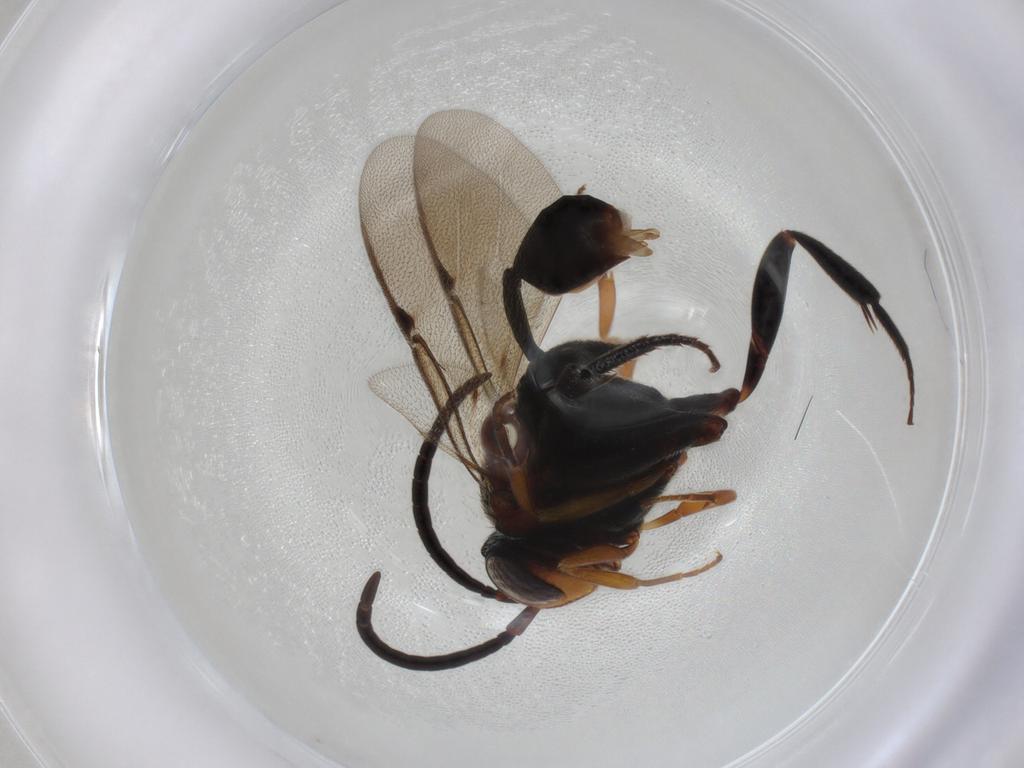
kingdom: Animalia
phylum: Arthropoda
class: Insecta
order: Hymenoptera
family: Evaniidae
